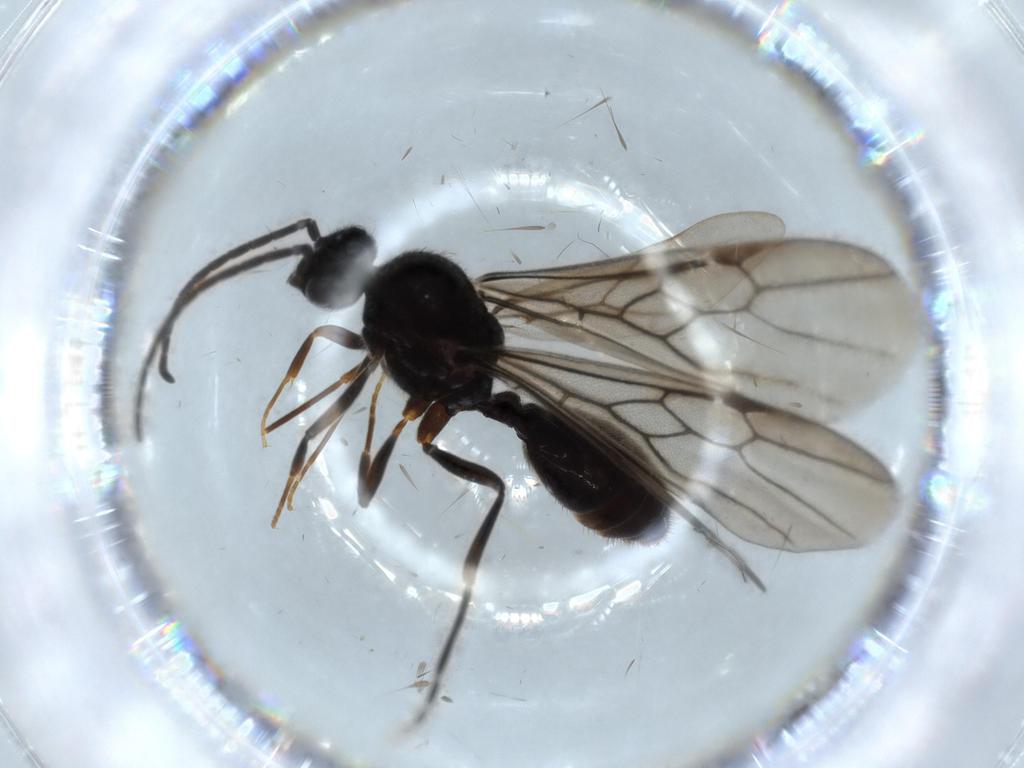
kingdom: Animalia
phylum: Arthropoda
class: Insecta
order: Hymenoptera
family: Formicidae
